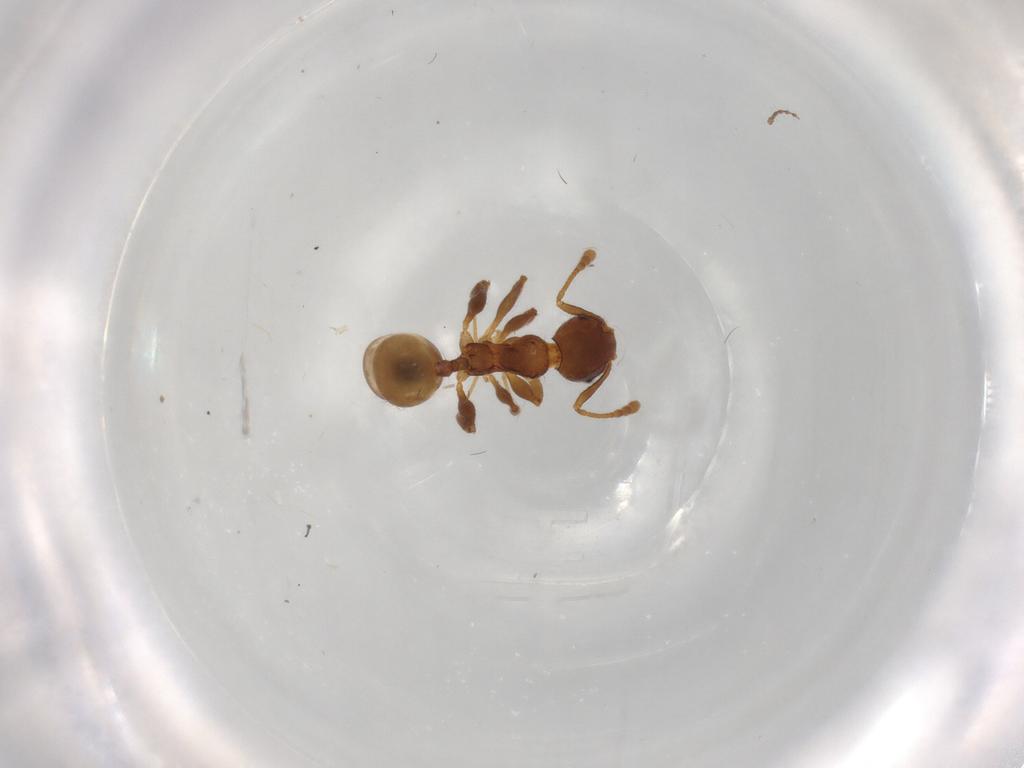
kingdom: Animalia
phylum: Arthropoda
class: Insecta
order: Hymenoptera
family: Formicidae
